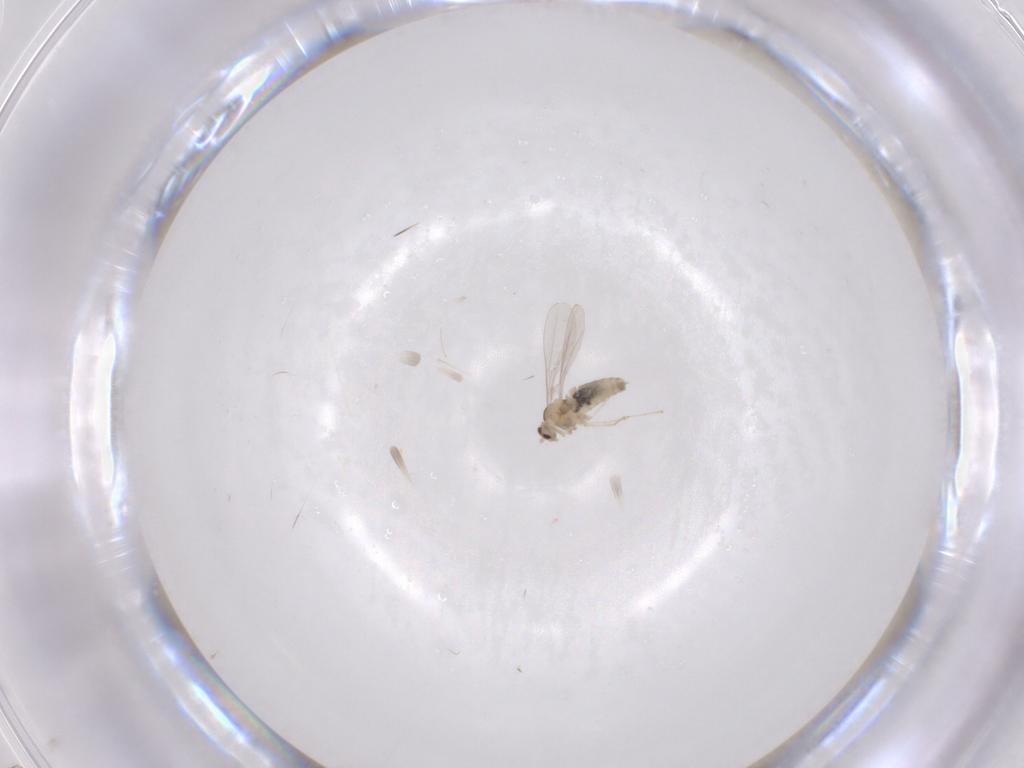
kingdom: Animalia
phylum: Arthropoda
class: Insecta
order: Diptera
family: Cecidomyiidae
